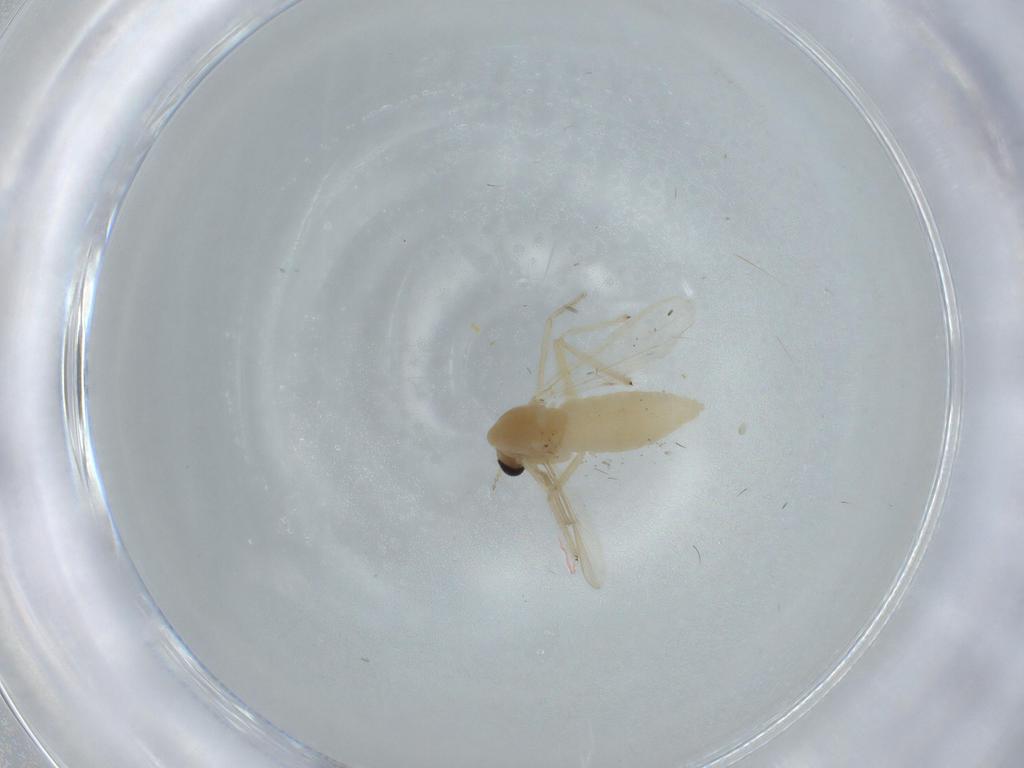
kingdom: Animalia
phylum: Arthropoda
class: Insecta
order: Diptera
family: Chironomidae
